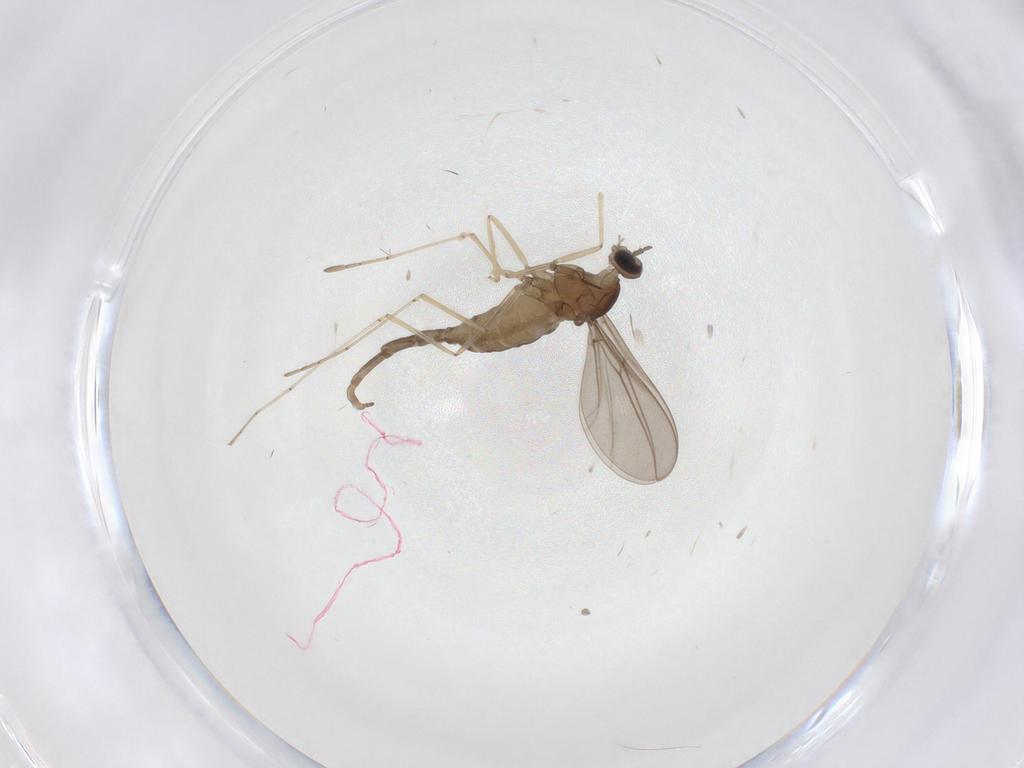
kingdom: Animalia
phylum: Arthropoda
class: Insecta
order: Diptera
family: Cecidomyiidae
